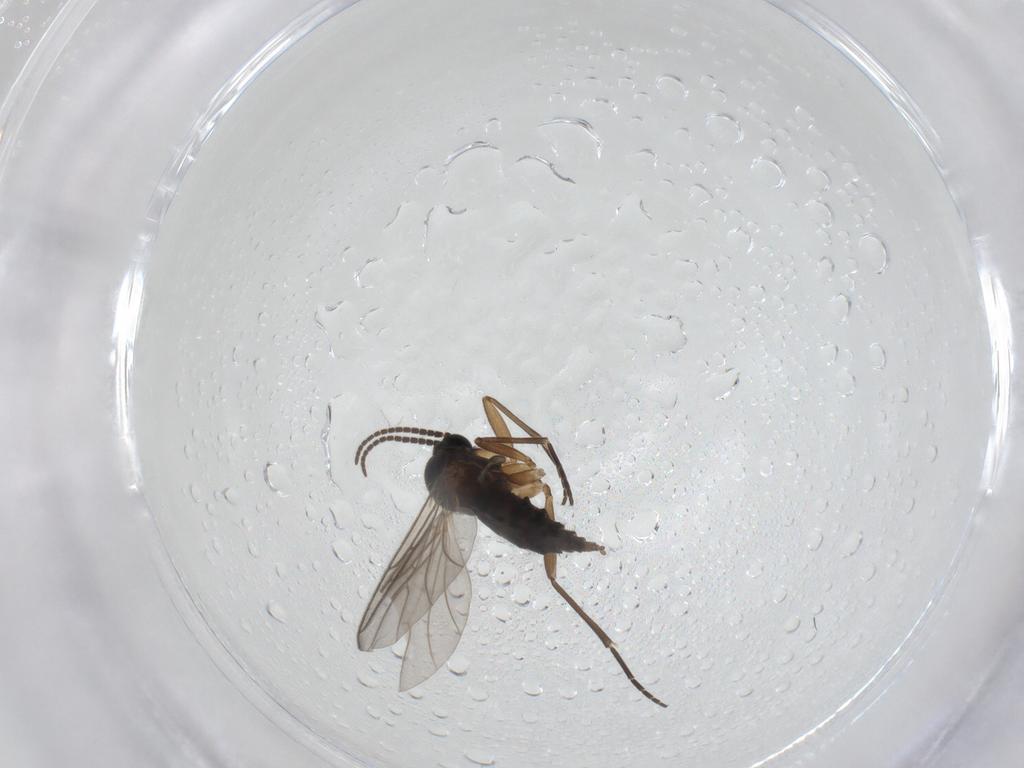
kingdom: Animalia
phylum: Arthropoda
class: Insecta
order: Diptera
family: Sciaridae
